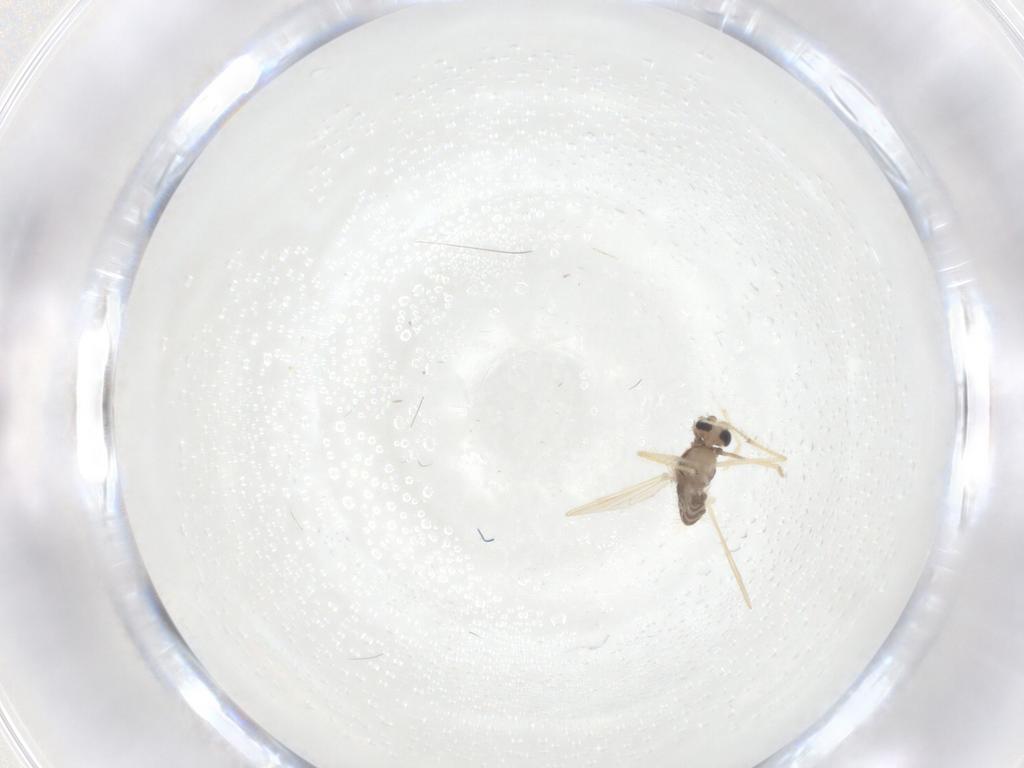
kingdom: Animalia
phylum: Arthropoda
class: Insecta
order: Diptera
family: Chironomidae
